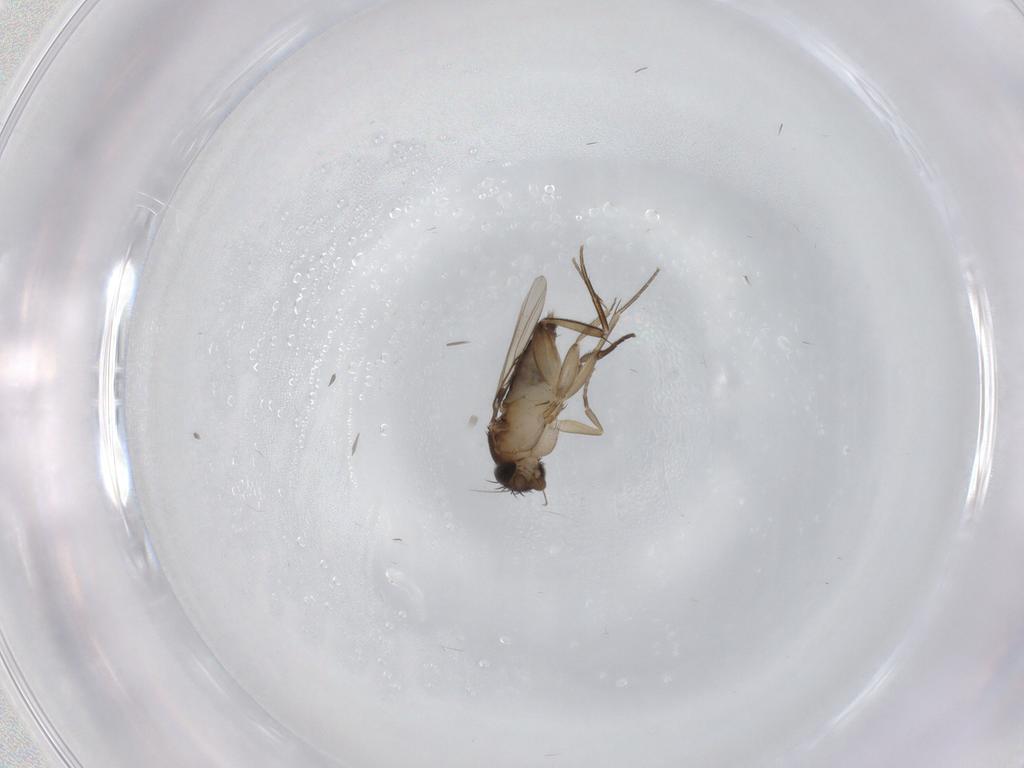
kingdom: Animalia
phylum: Arthropoda
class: Insecta
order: Diptera
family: Phoridae
